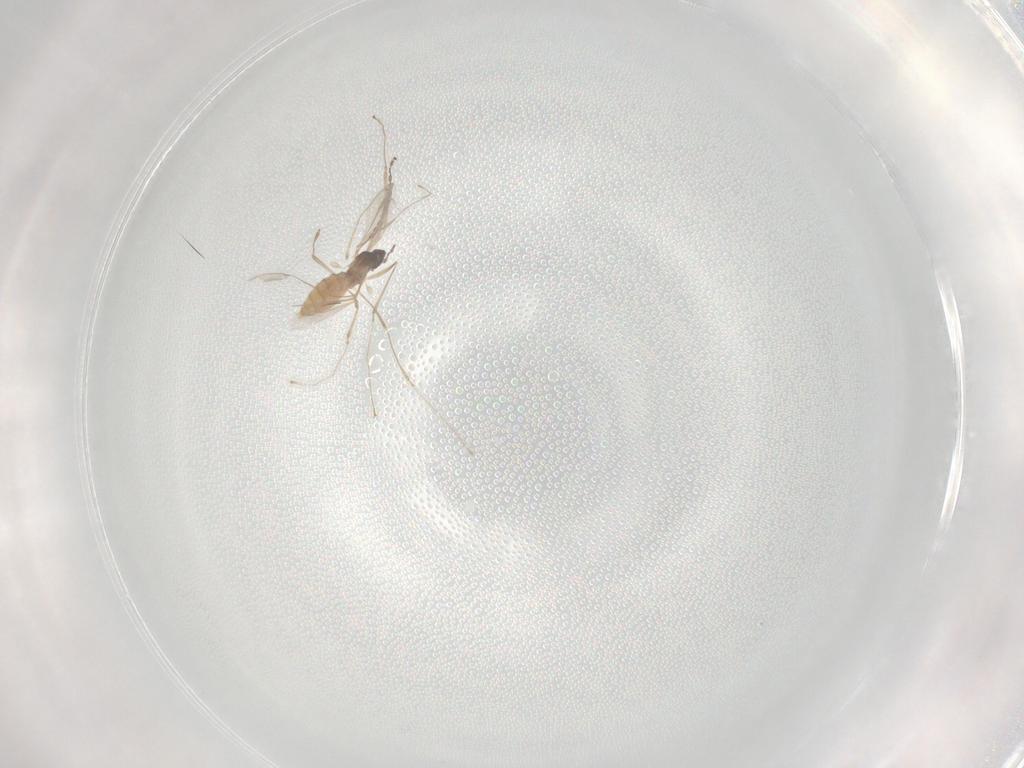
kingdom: Animalia
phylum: Arthropoda
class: Insecta
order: Diptera
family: Cecidomyiidae
